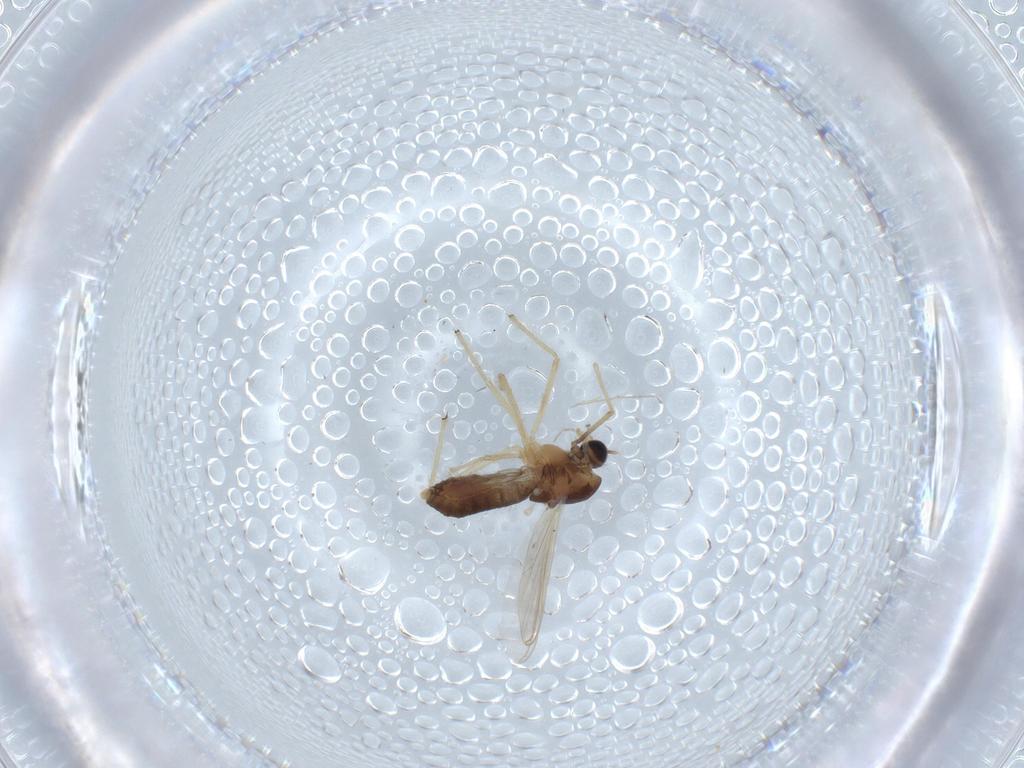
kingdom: Animalia
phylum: Arthropoda
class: Insecta
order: Diptera
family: Chironomidae
